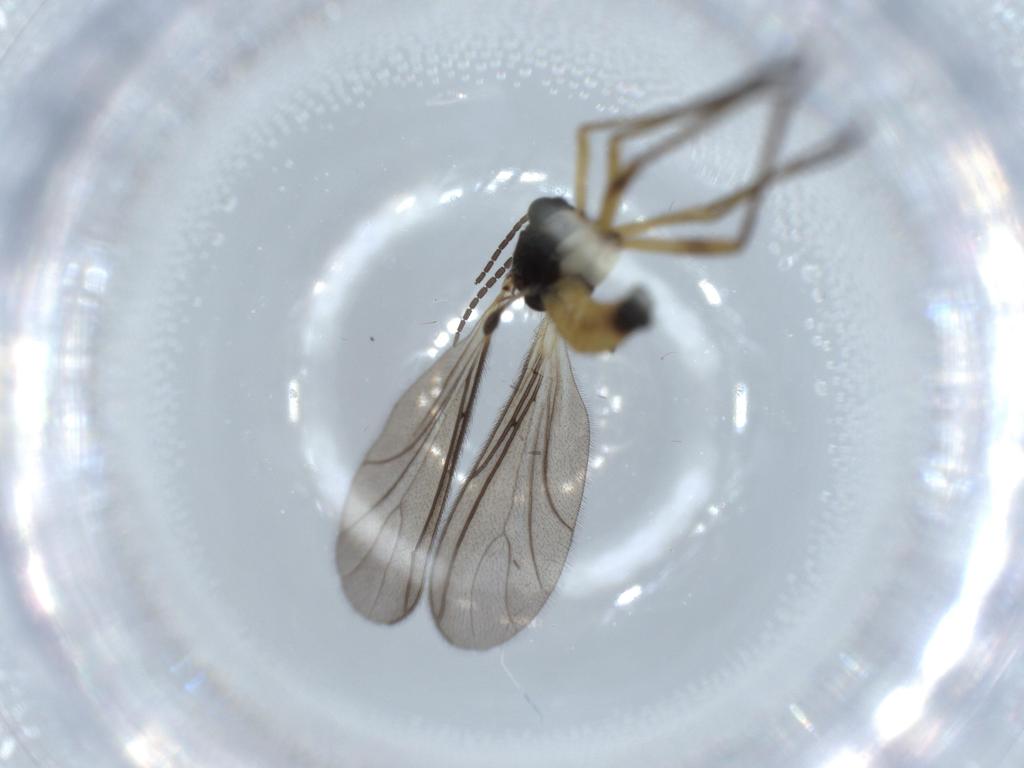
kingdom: Animalia
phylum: Arthropoda
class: Insecta
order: Diptera
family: Sciaridae
